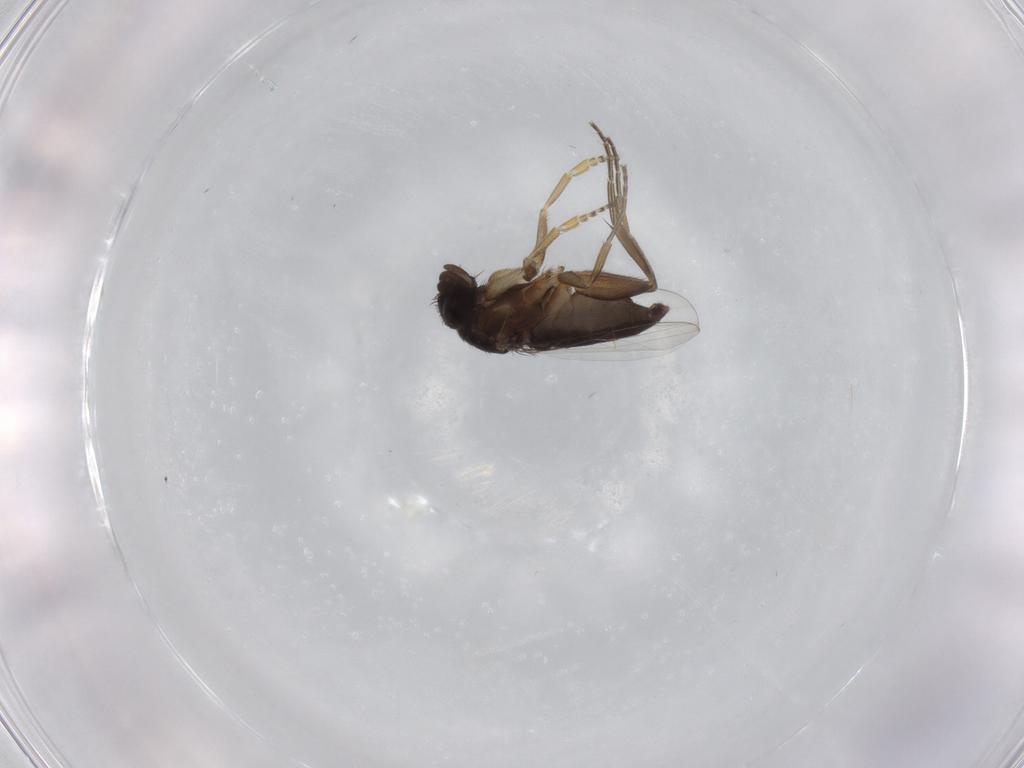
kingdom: Animalia
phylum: Arthropoda
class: Insecta
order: Diptera
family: Phoridae
